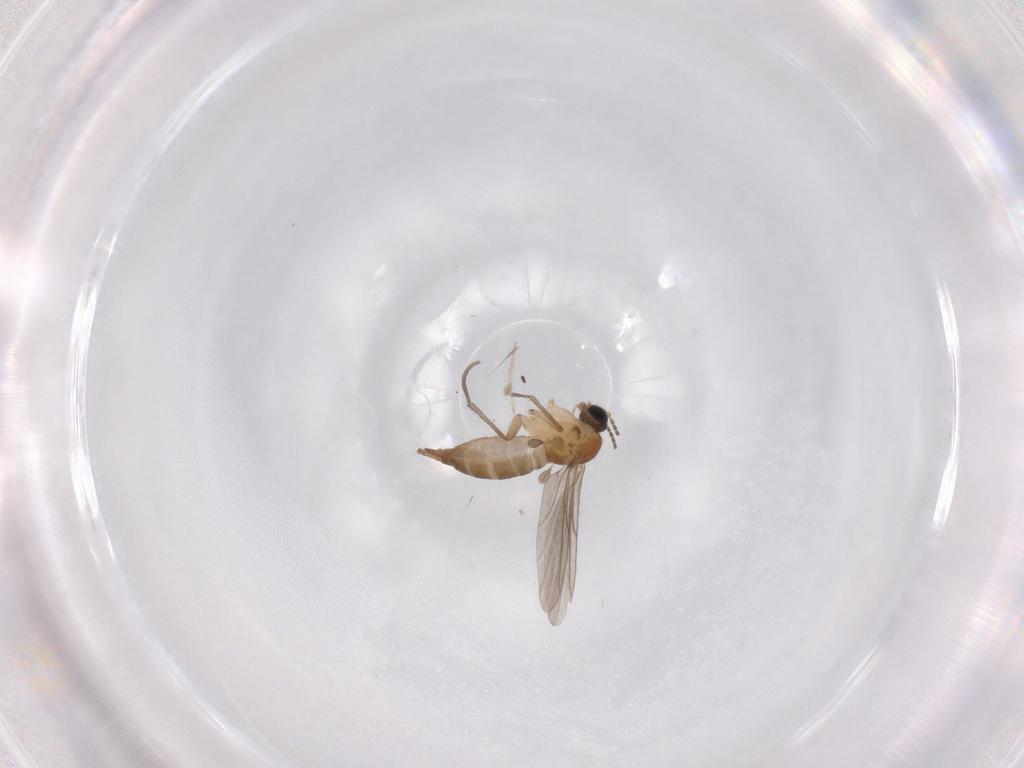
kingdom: Animalia
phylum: Arthropoda
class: Insecta
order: Diptera
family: Sciaridae
